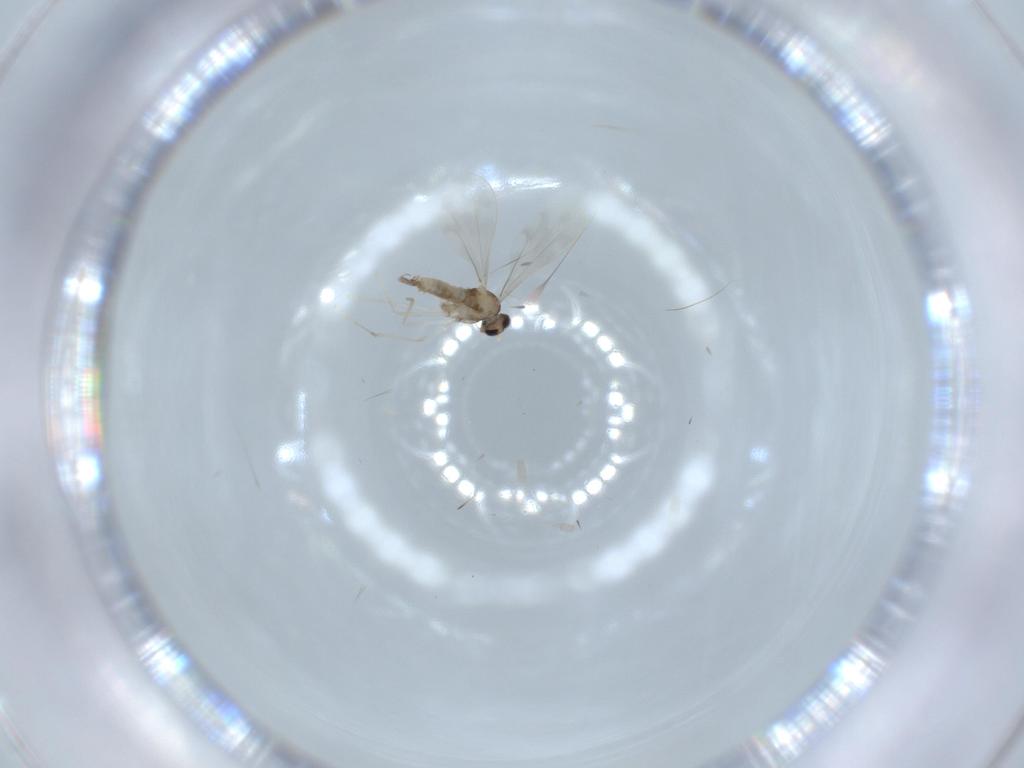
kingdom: Animalia
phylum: Arthropoda
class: Insecta
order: Diptera
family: Cecidomyiidae
